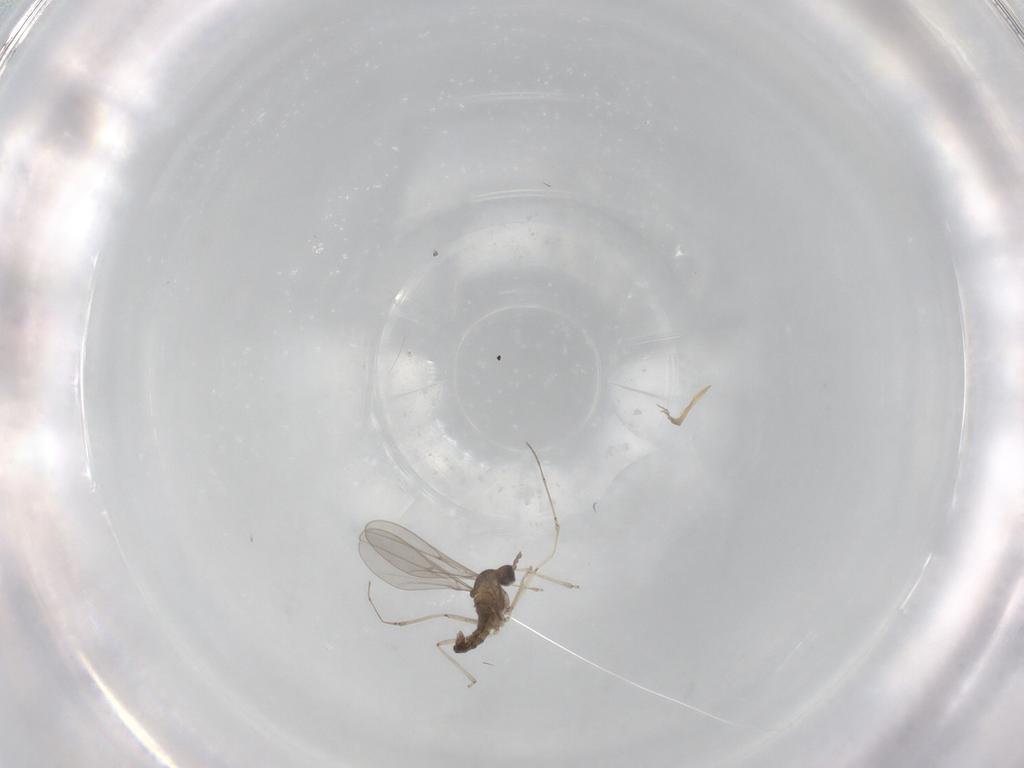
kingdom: Animalia
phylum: Arthropoda
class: Insecta
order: Diptera
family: Cecidomyiidae
